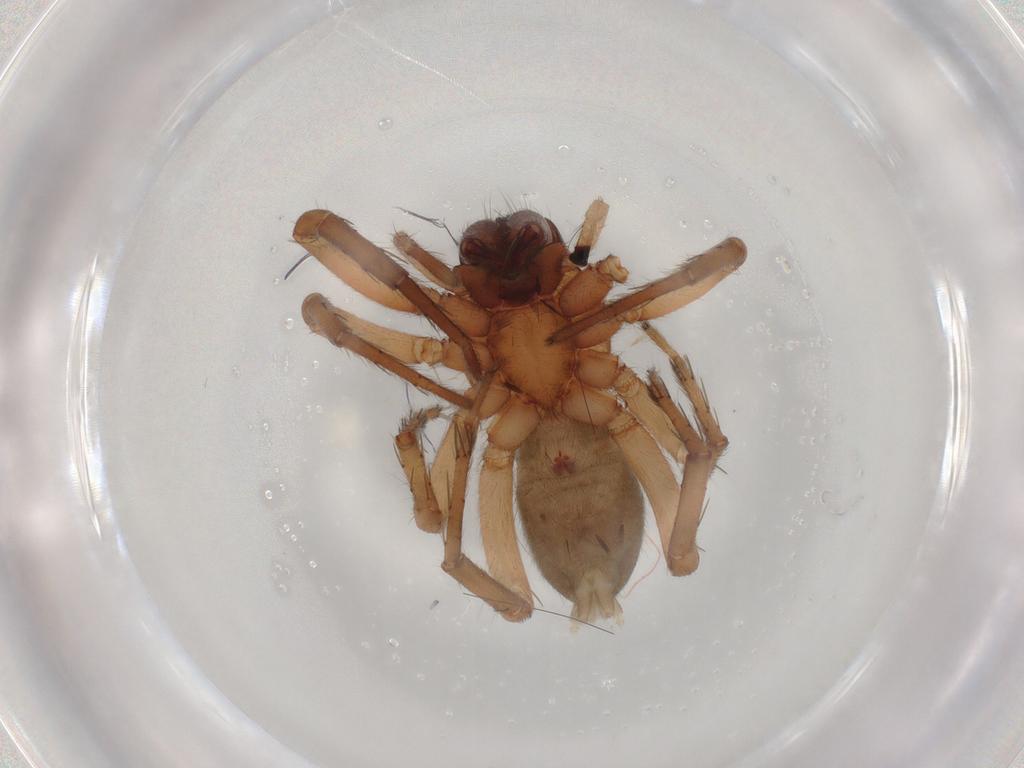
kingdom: Animalia
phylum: Arthropoda
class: Arachnida
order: Araneae
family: Anyphaenidae
